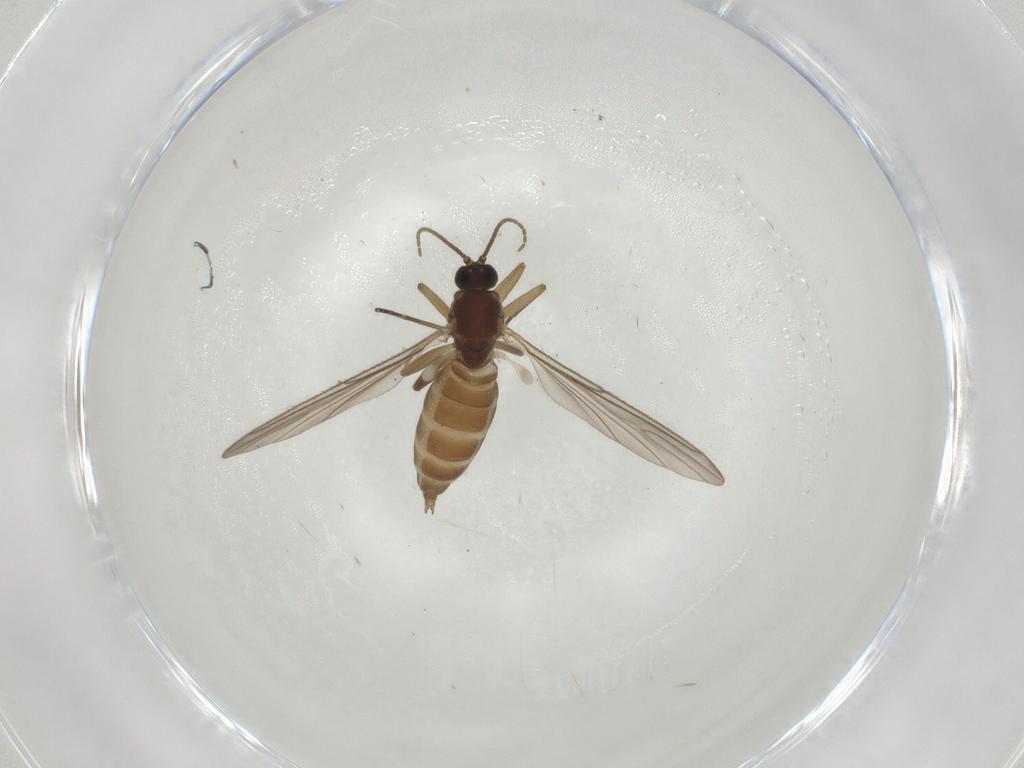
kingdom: Animalia
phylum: Arthropoda
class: Insecta
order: Diptera
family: Sciaridae
